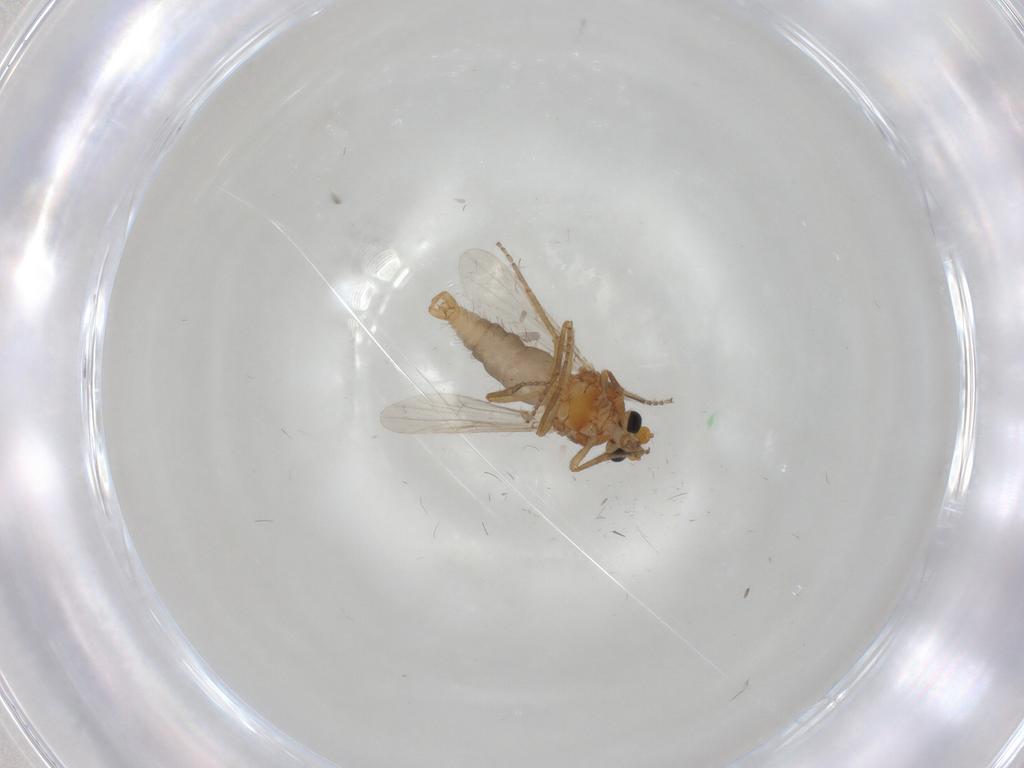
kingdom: Animalia
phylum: Arthropoda
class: Insecta
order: Diptera
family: Ceratopogonidae
